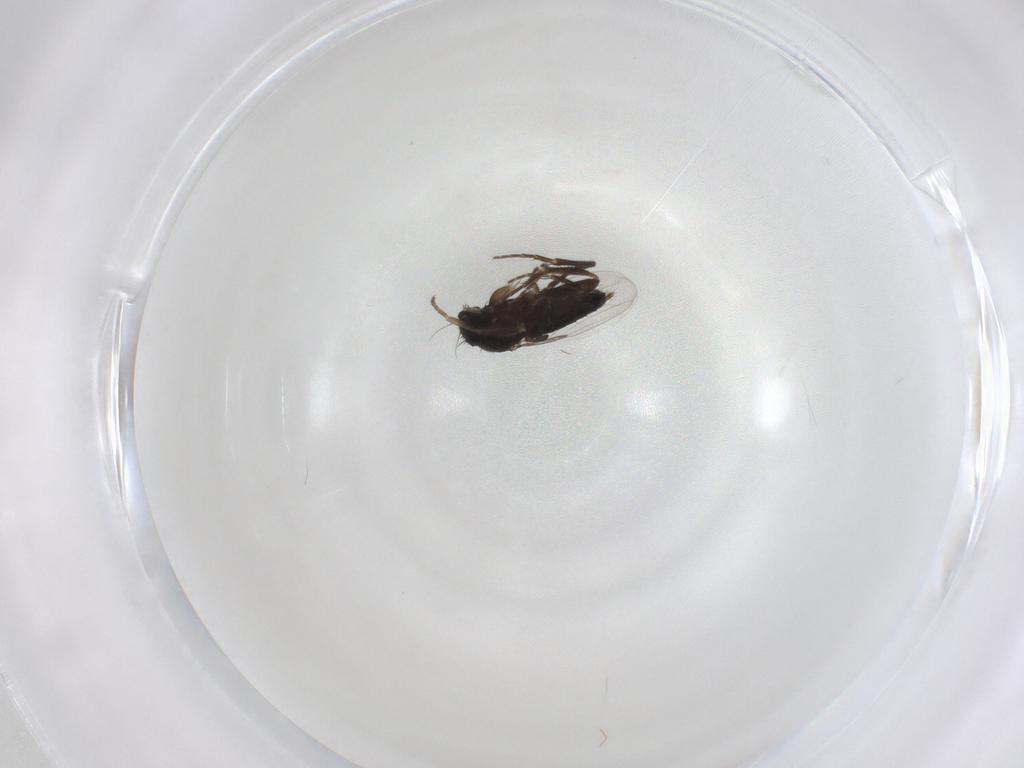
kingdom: Animalia
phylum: Arthropoda
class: Insecta
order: Diptera
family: Phoridae
